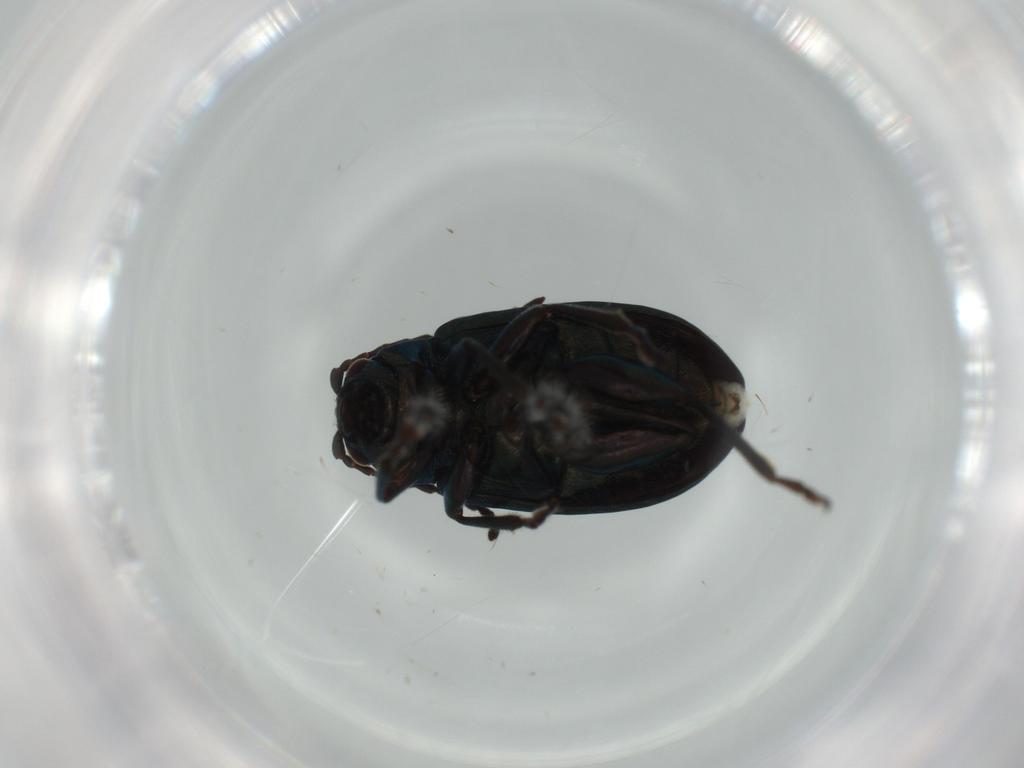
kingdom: Animalia
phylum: Arthropoda
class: Insecta
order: Coleoptera
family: Chrysomelidae
